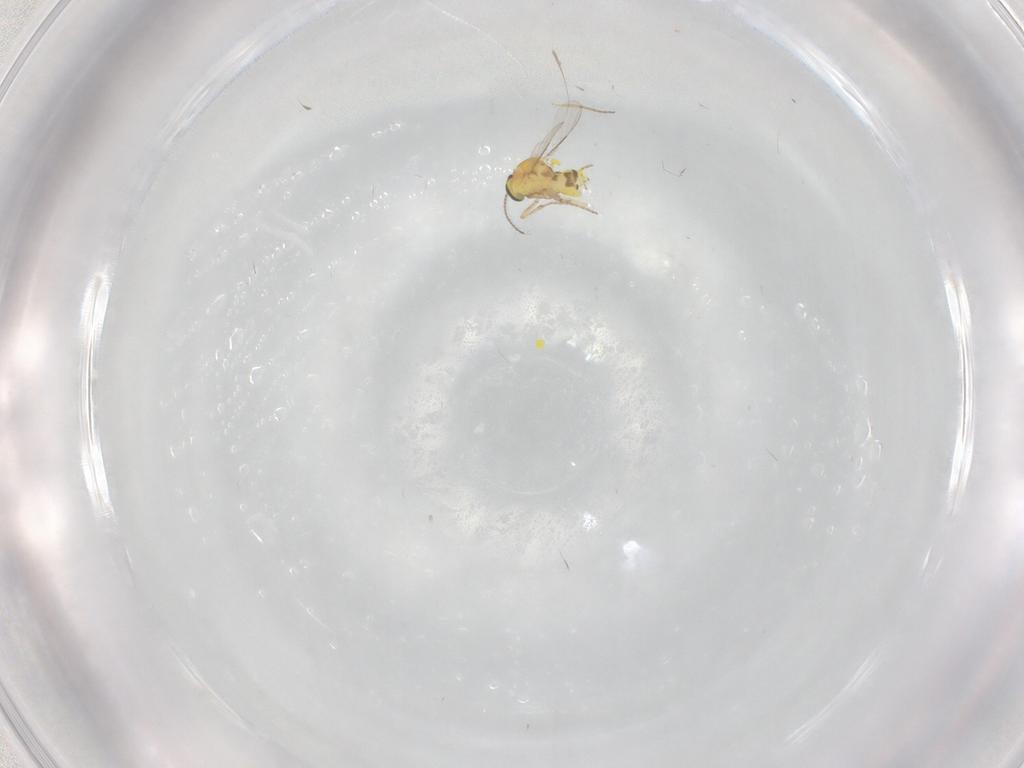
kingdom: Animalia
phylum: Arthropoda
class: Insecta
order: Diptera
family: Ceratopogonidae
